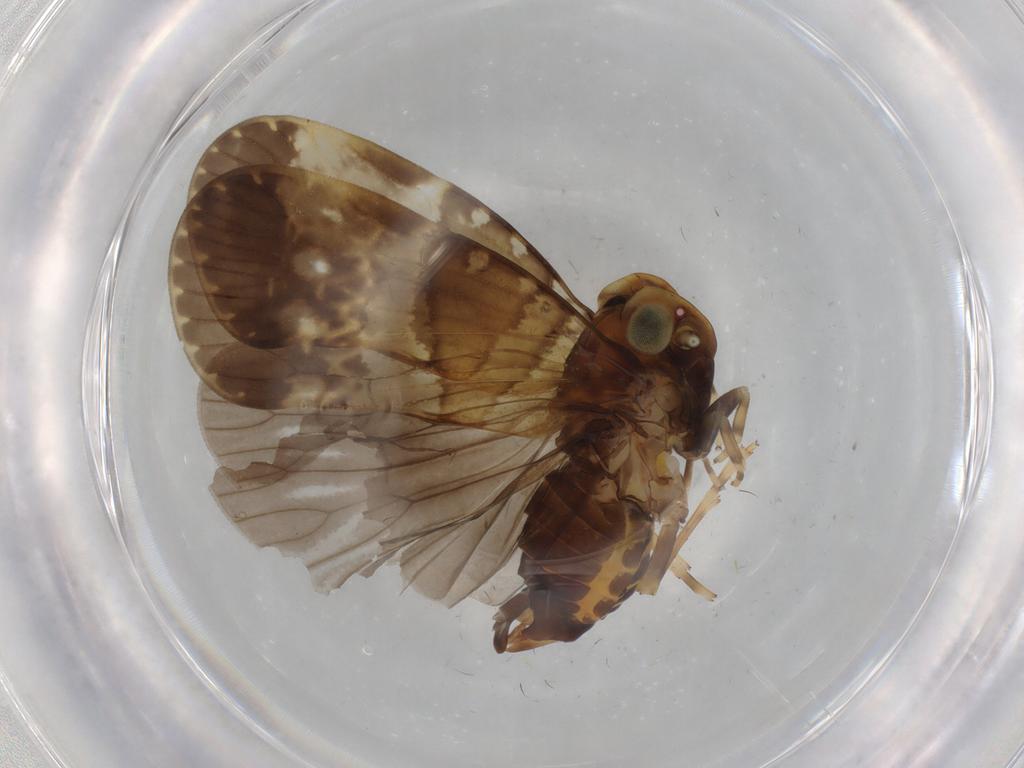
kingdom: Animalia
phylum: Arthropoda
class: Insecta
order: Hemiptera
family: Cixiidae
